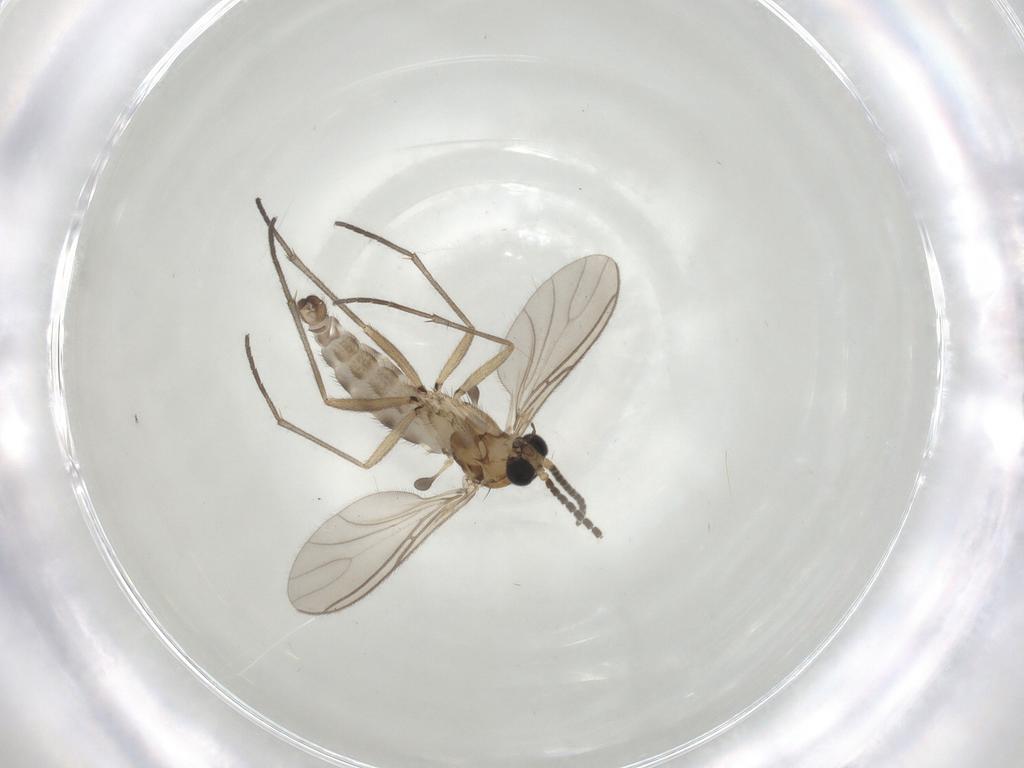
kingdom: Animalia
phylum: Arthropoda
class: Insecta
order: Diptera
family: Sciaridae
